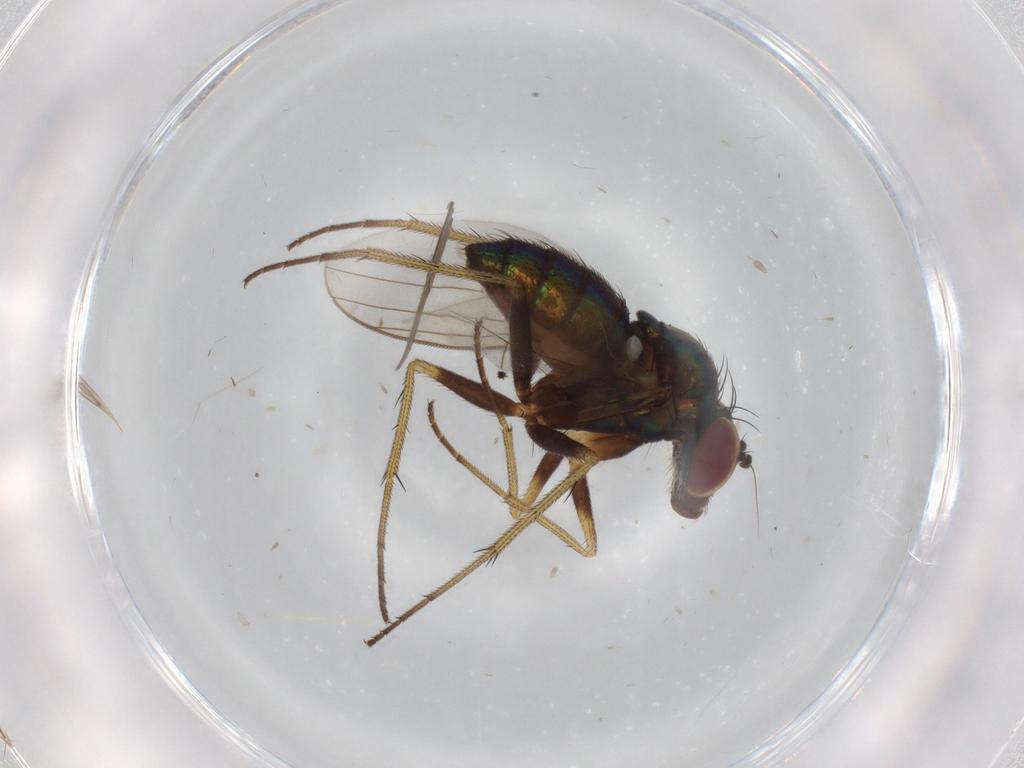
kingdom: Animalia
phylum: Arthropoda
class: Insecta
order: Diptera
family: Dolichopodidae
